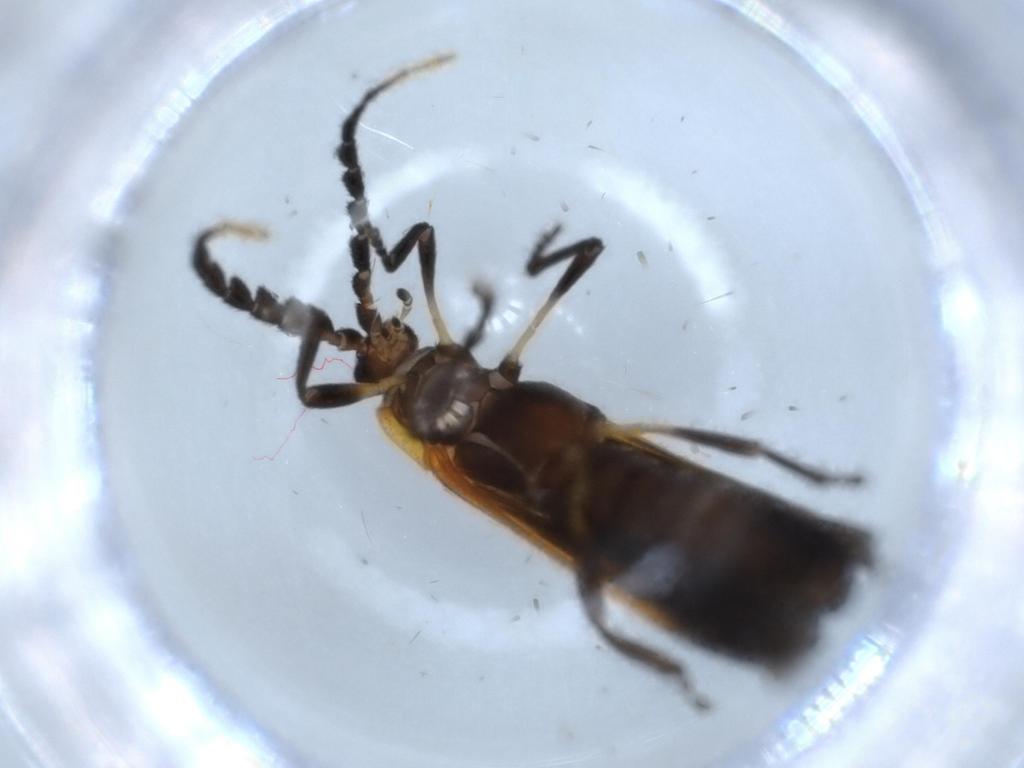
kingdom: Animalia
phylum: Arthropoda
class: Insecta
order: Coleoptera
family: Lycidae
